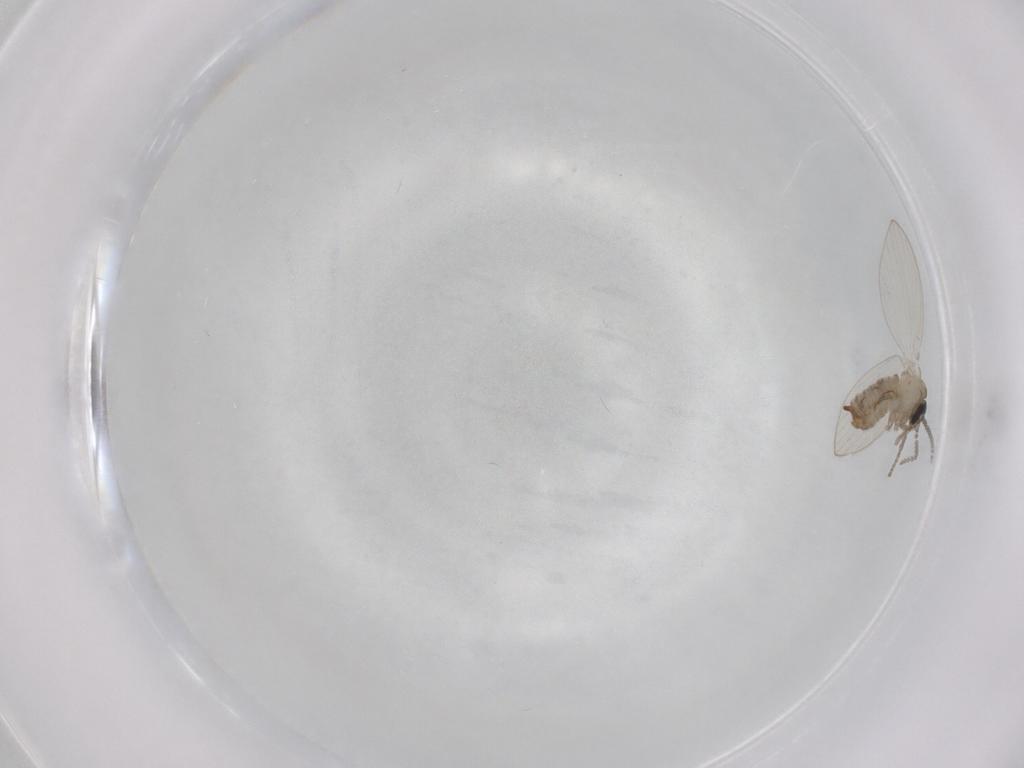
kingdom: Animalia
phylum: Arthropoda
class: Insecta
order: Diptera
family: Psychodidae
